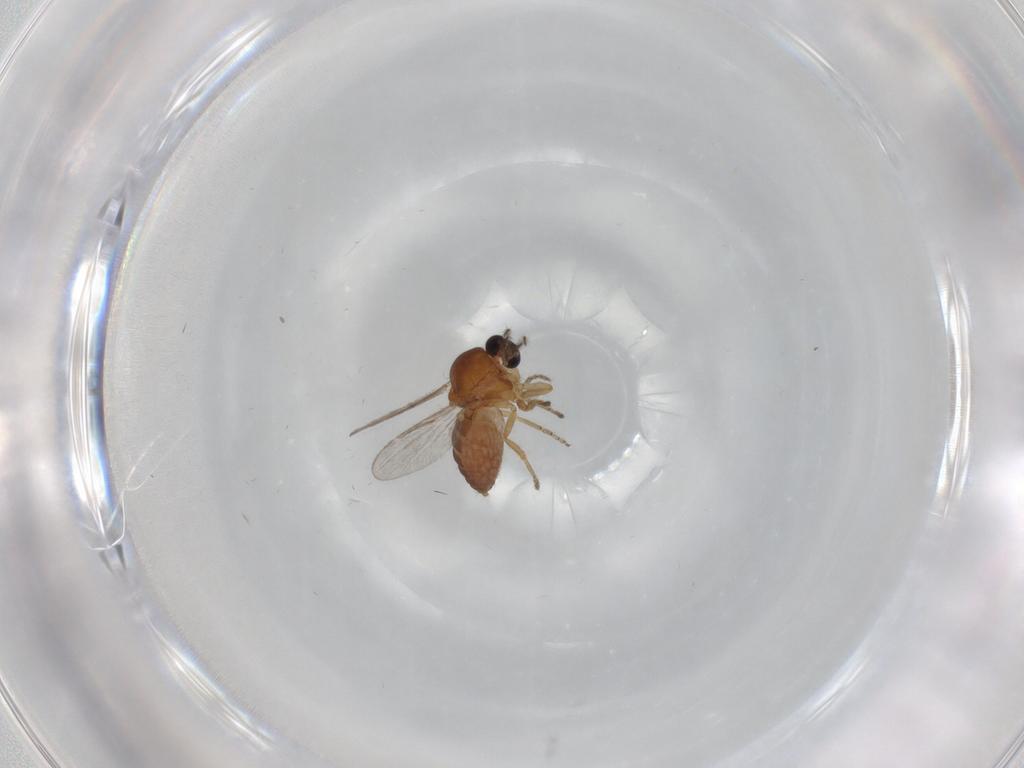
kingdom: Animalia
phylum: Arthropoda
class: Insecta
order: Diptera
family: Ceratopogonidae
